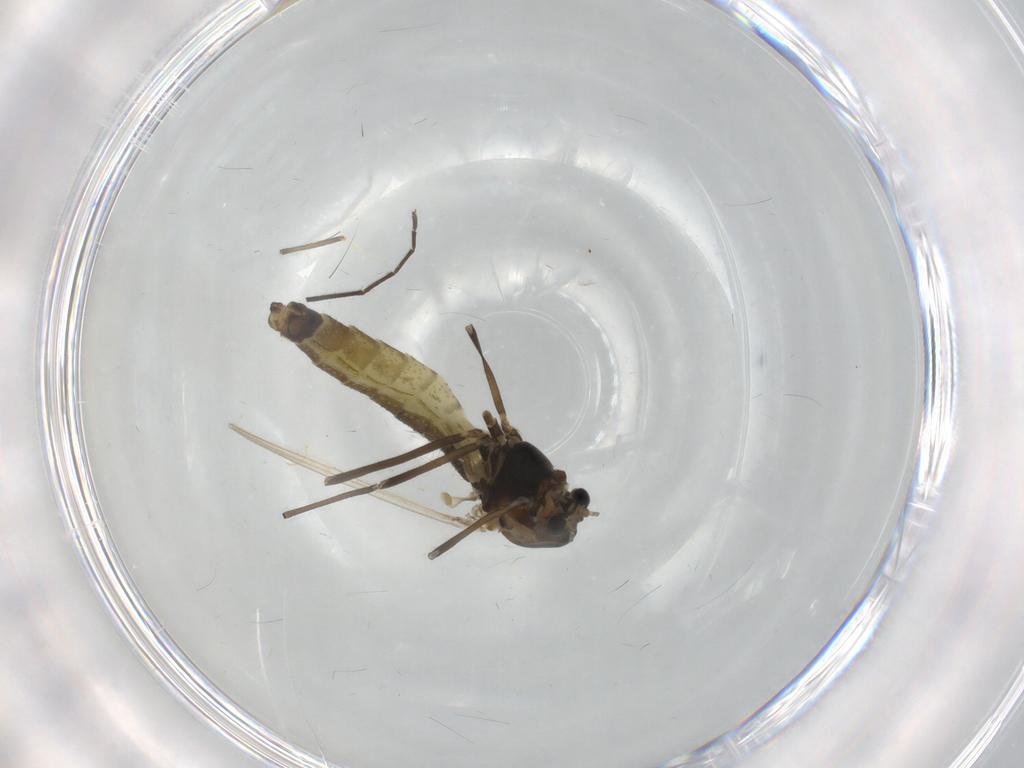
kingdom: Animalia
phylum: Arthropoda
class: Insecta
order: Diptera
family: Chironomidae
